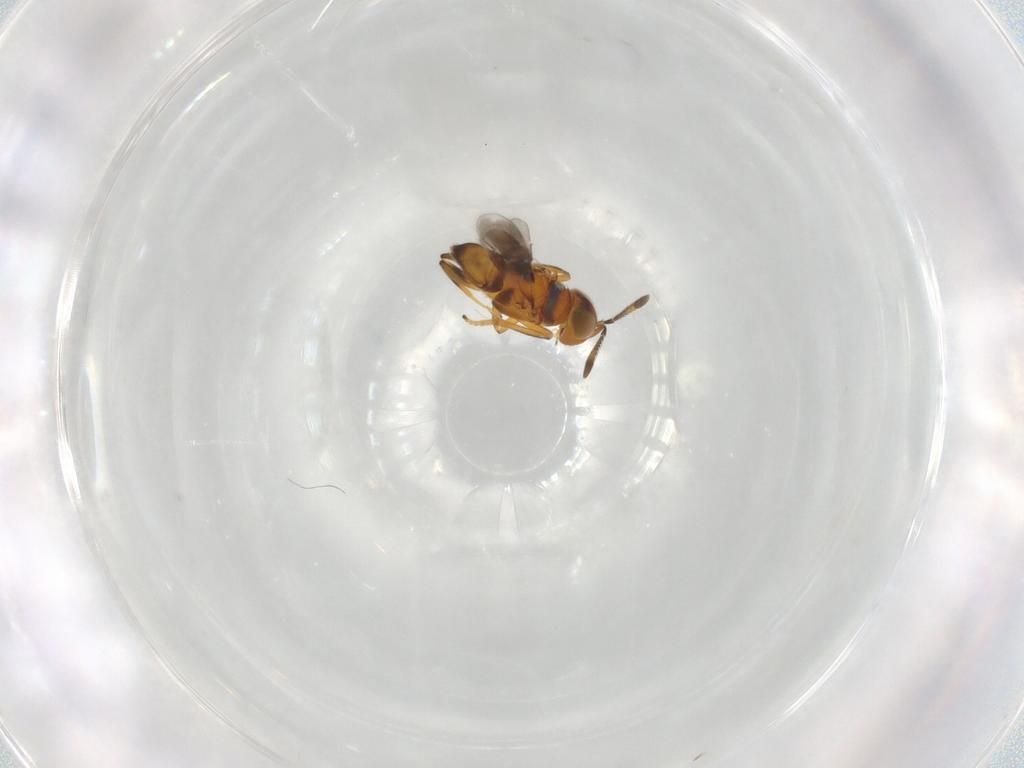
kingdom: Animalia
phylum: Arthropoda
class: Insecta
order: Hymenoptera
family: Encyrtidae
